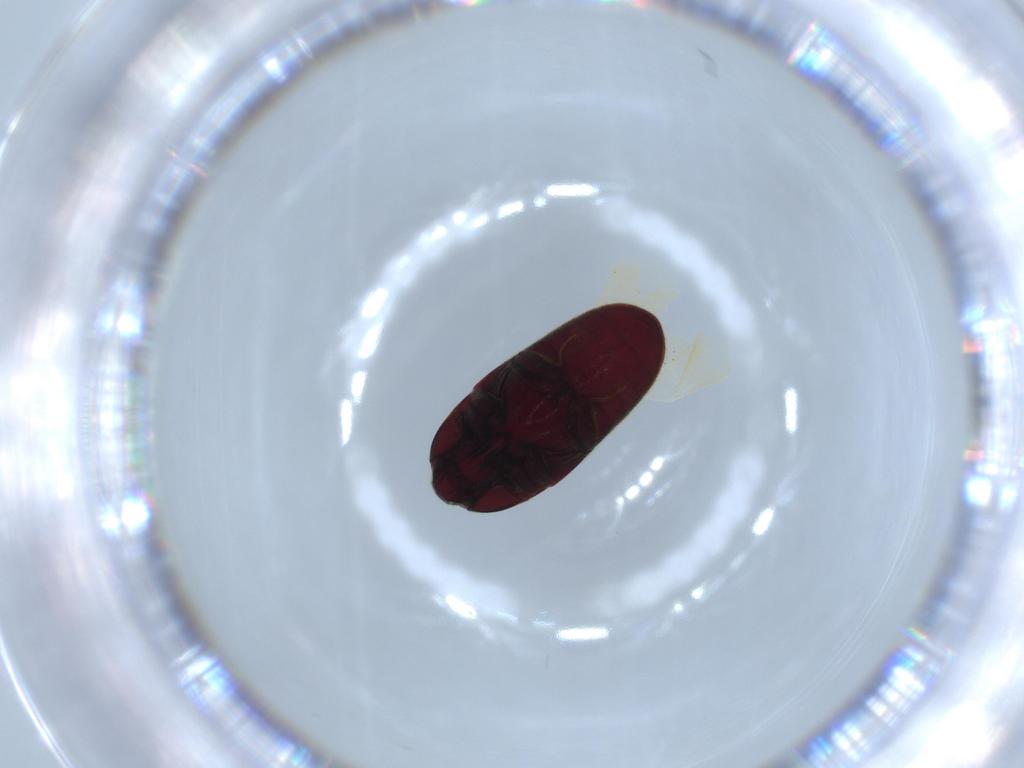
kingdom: Animalia
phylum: Arthropoda
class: Insecta
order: Coleoptera
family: Throscidae
